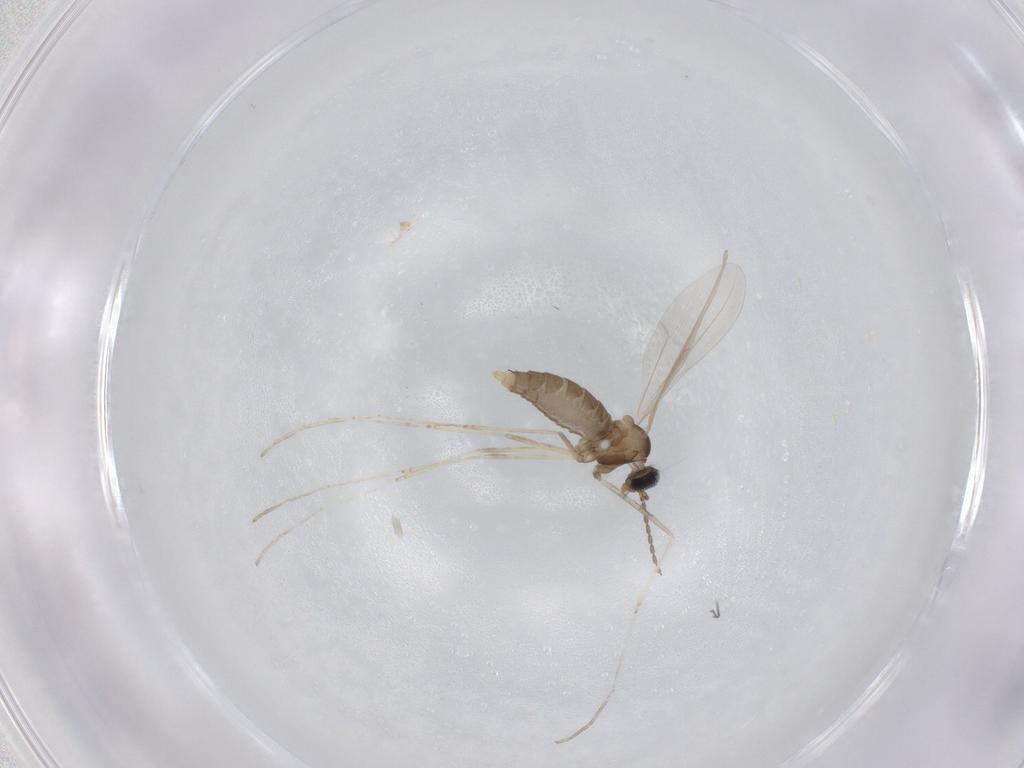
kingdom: Animalia
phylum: Arthropoda
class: Insecta
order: Diptera
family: Cecidomyiidae
